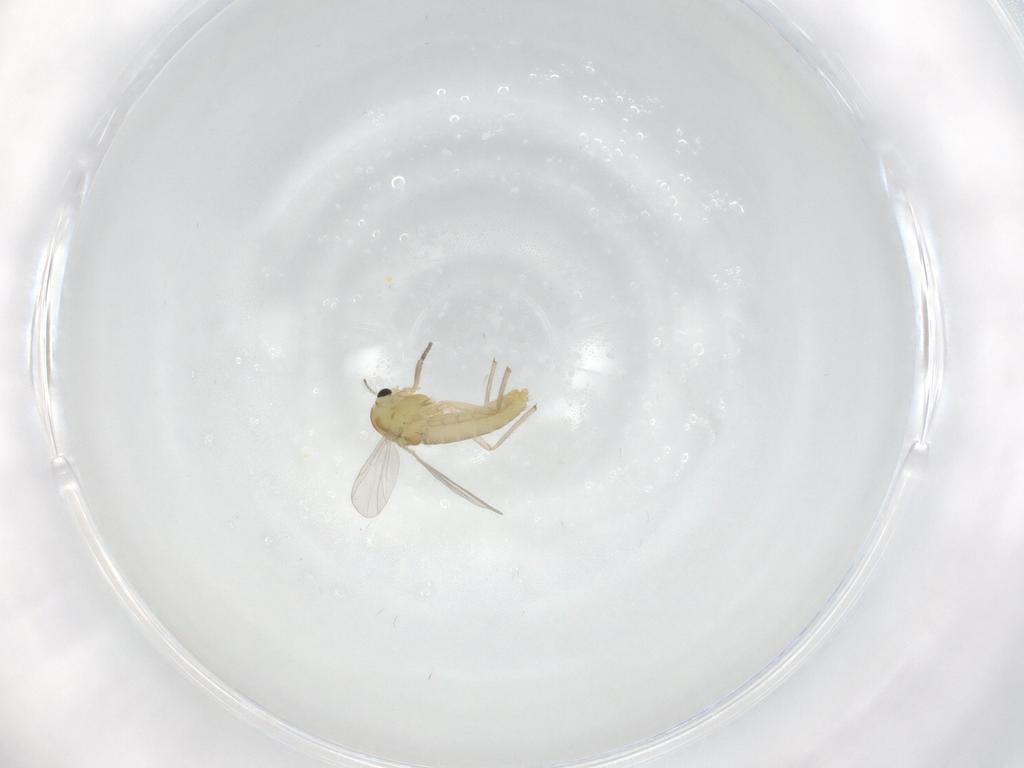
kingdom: Animalia
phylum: Arthropoda
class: Insecta
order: Diptera
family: Chironomidae
